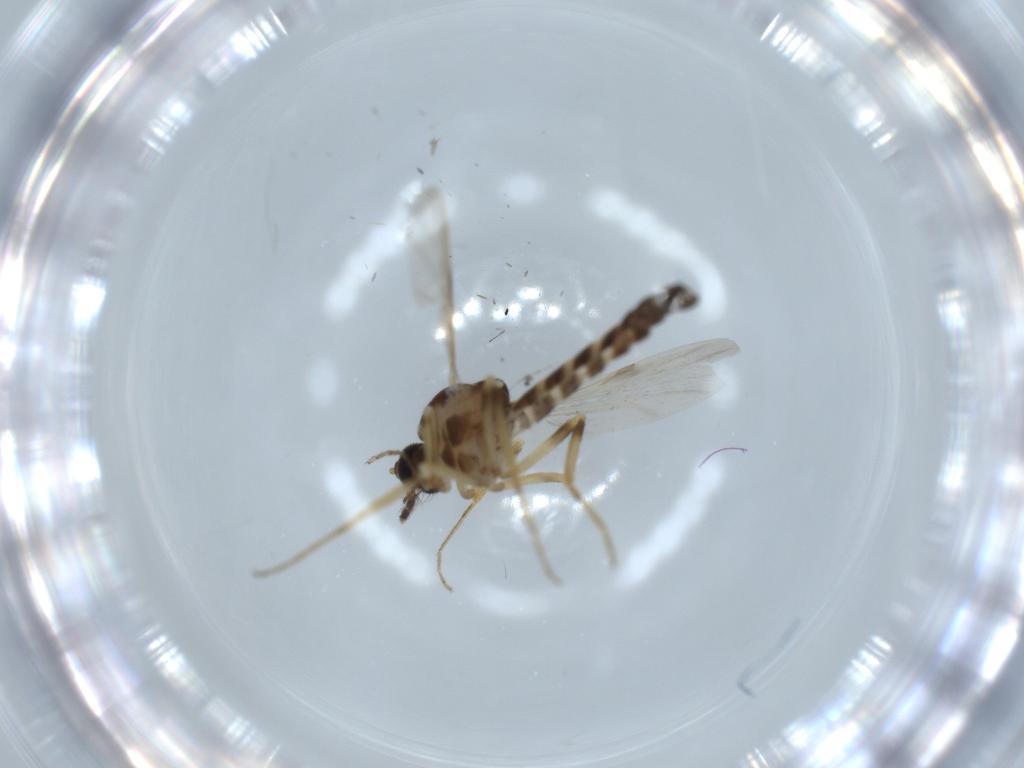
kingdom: Animalia
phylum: Arthropoda
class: Insecta
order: Diptera
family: Ceratopogonidae
